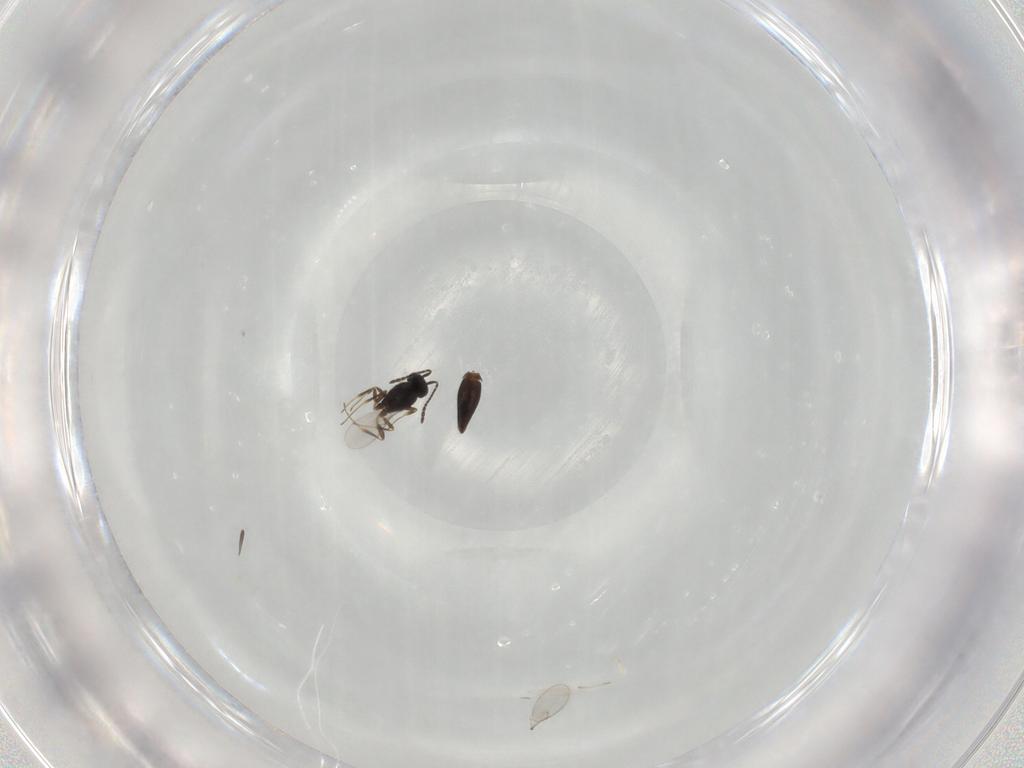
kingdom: Animalia
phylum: Arthropoda
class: Insecta
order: Hymenoptera
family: Scelionidae
